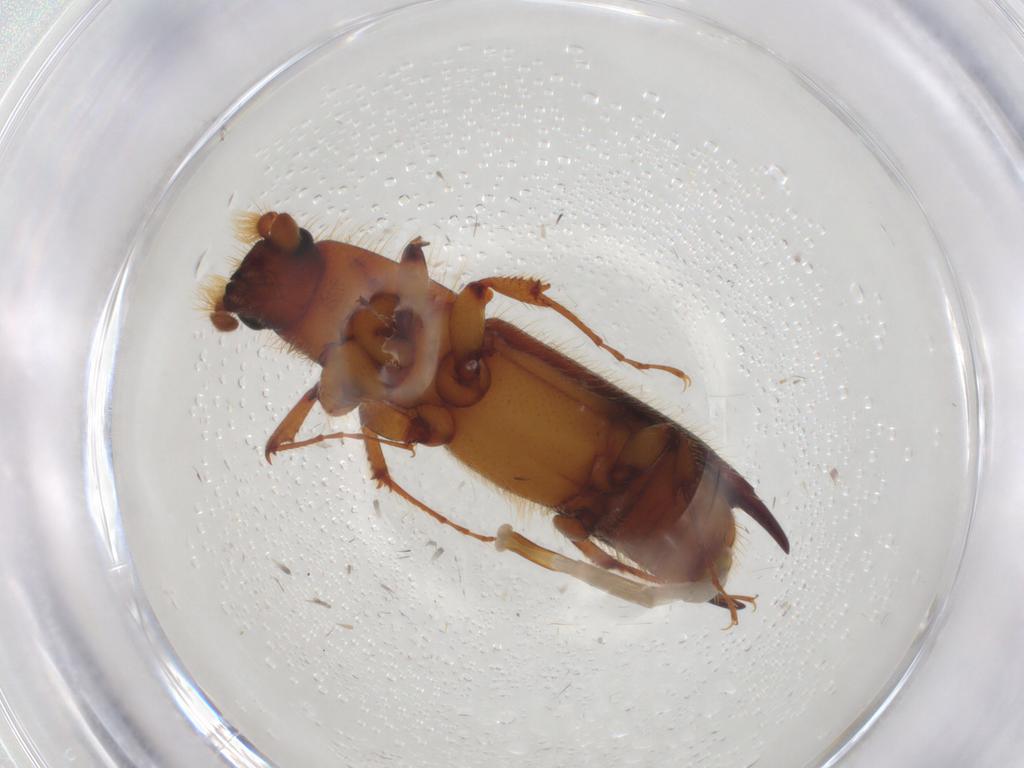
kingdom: Animalia
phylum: Arthropoda
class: Insecta
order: Coleoptera
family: Curculionidae
